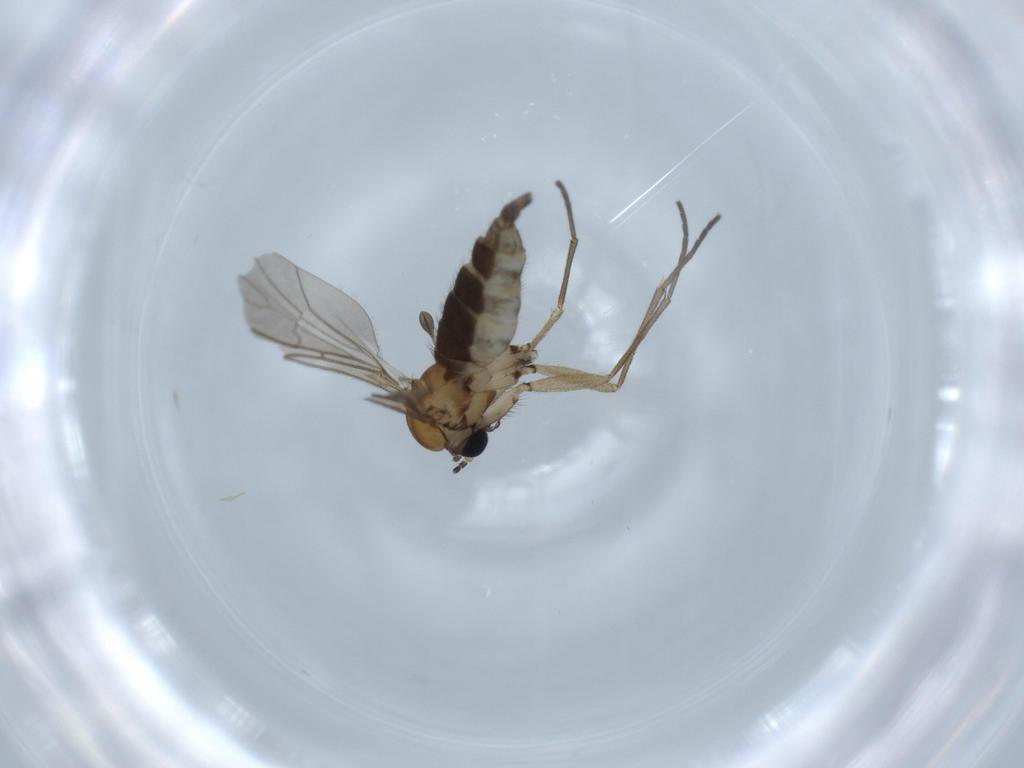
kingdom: Animalia
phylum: Arthropoda
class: Insecta
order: Diptera
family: Sciaridae
